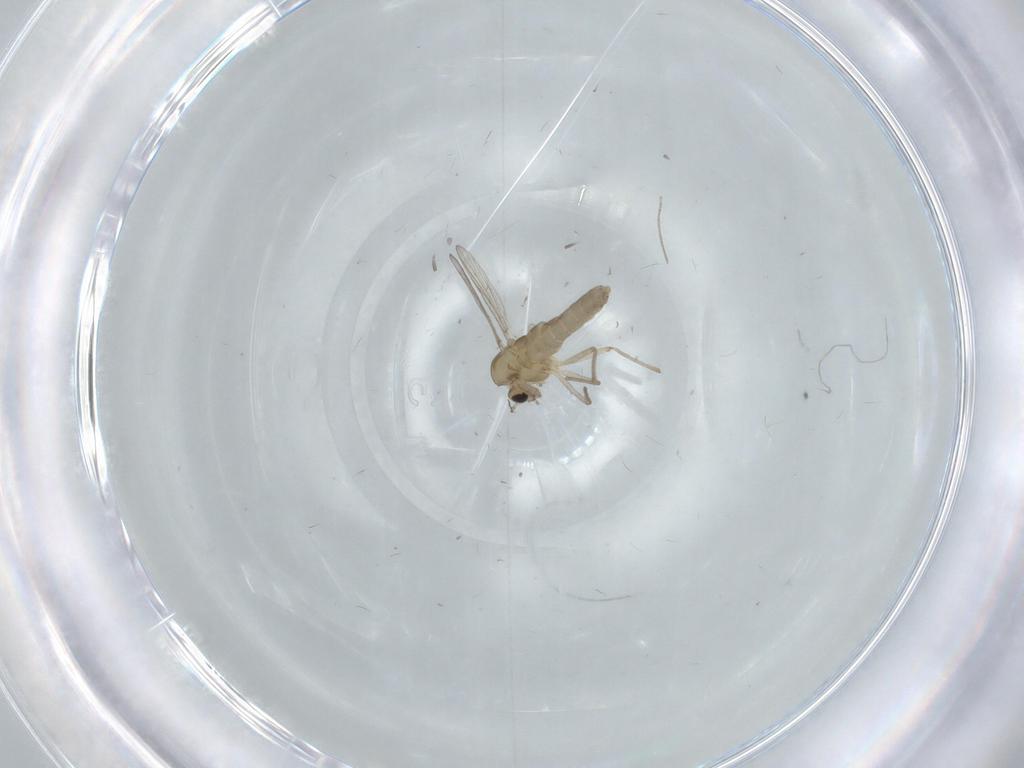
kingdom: Animalia
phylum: Arthropoda
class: Insecta
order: Diptera
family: Chironomidae
